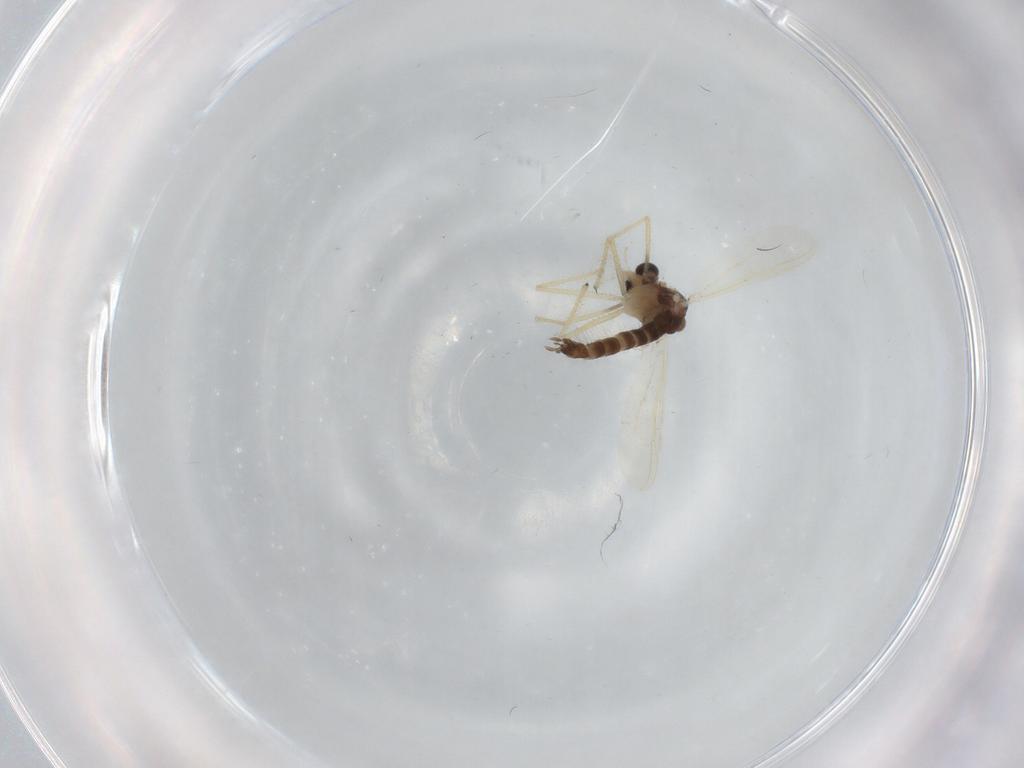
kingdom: Animalia
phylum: Arthropoda
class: Insecta
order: Diptera
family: Chironomidae
